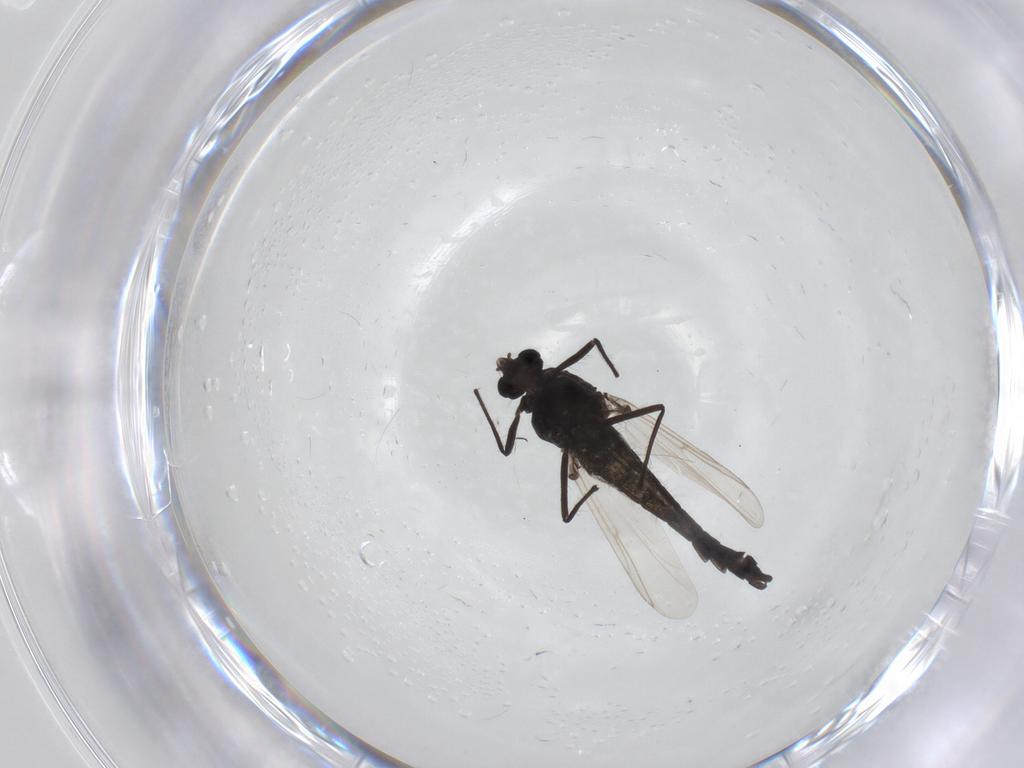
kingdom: Animalia
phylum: Arthropoda
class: Insecta
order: Diptera
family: Chironomidae
